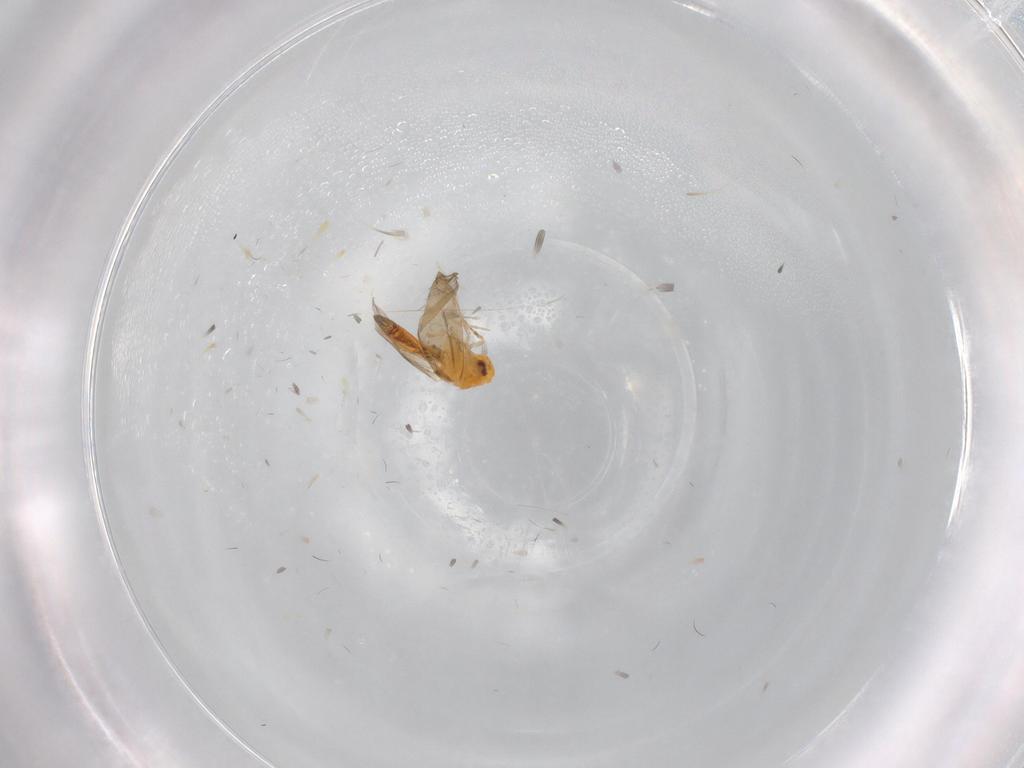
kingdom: Animalia
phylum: Arthropoda
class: Insecta
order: Hemiptera
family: Aleyrodidae
